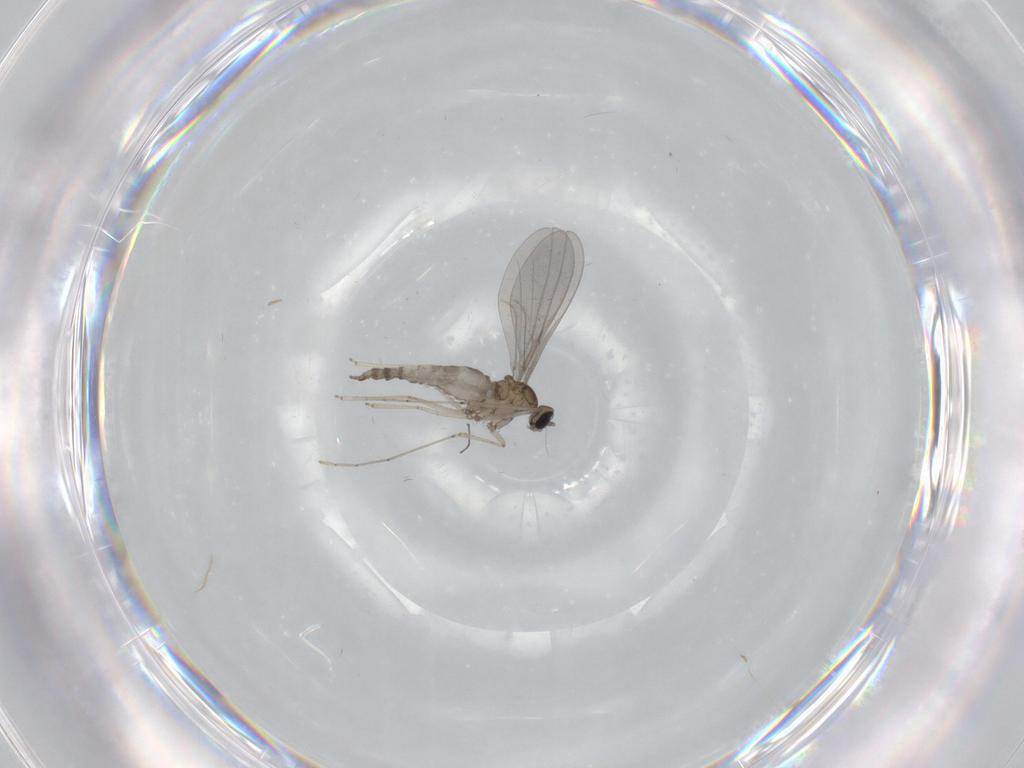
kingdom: Animalia
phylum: Arthropoda
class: Insecta
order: Diptera
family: Cecidomyiidae
